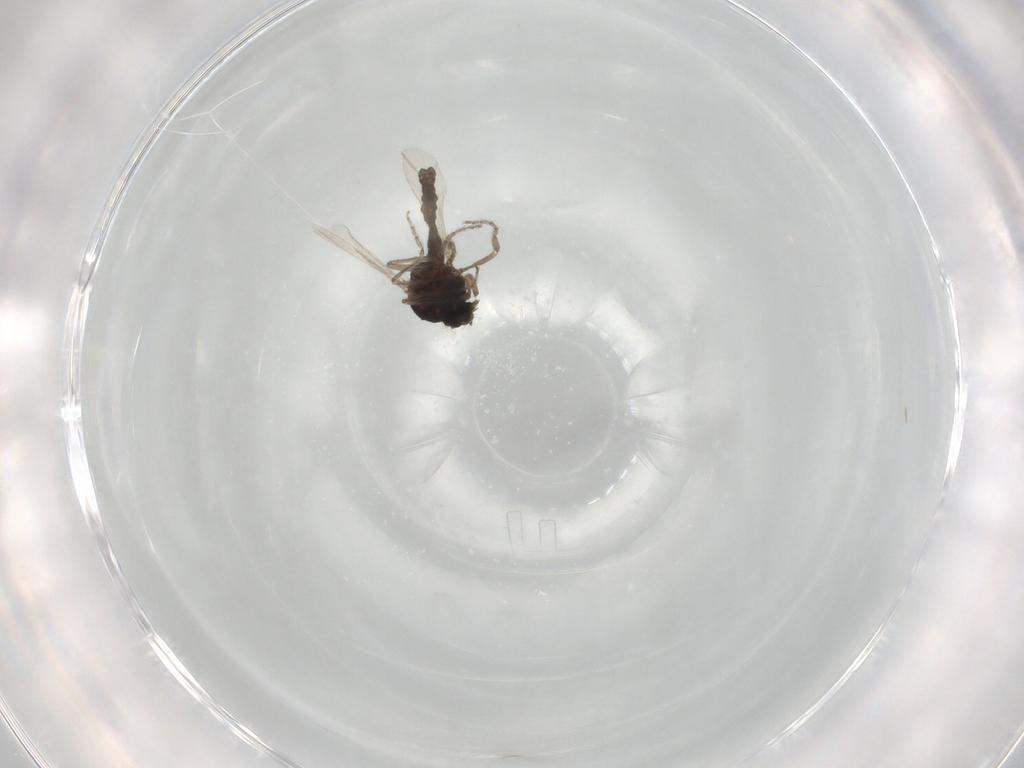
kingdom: Animalia
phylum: Arthropoda
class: Insecta
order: Diptera
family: Ceratopogonidae
